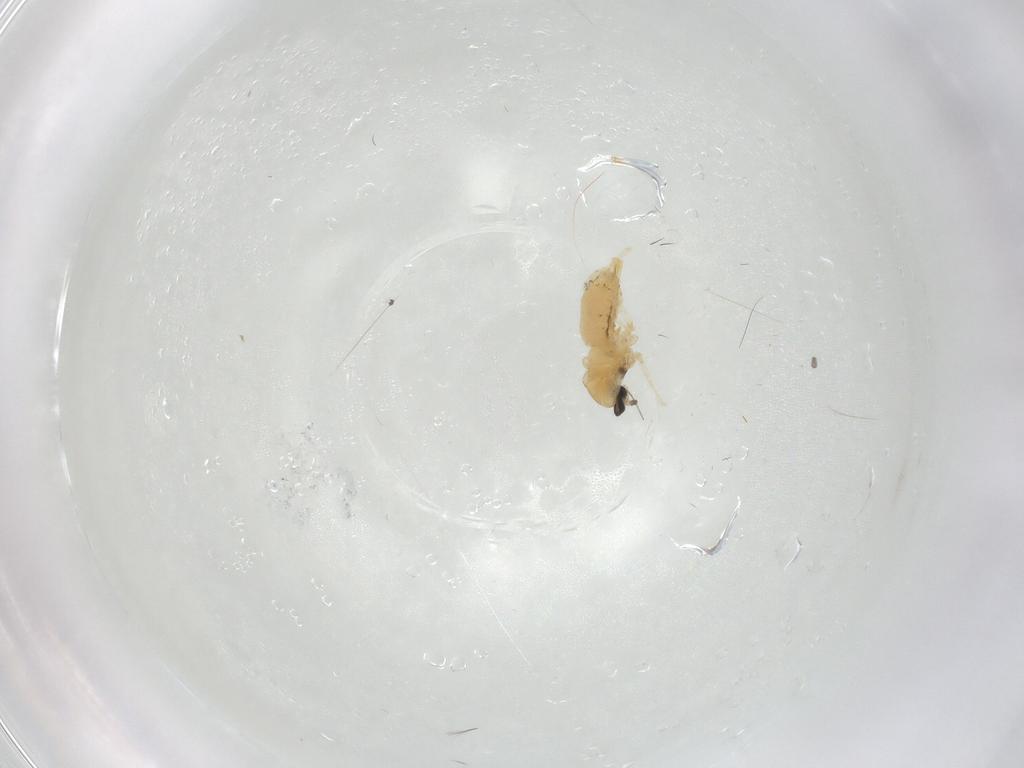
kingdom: Animalia
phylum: Arthropoda
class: Insecta
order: Diptera
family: Cecidomyiidae
